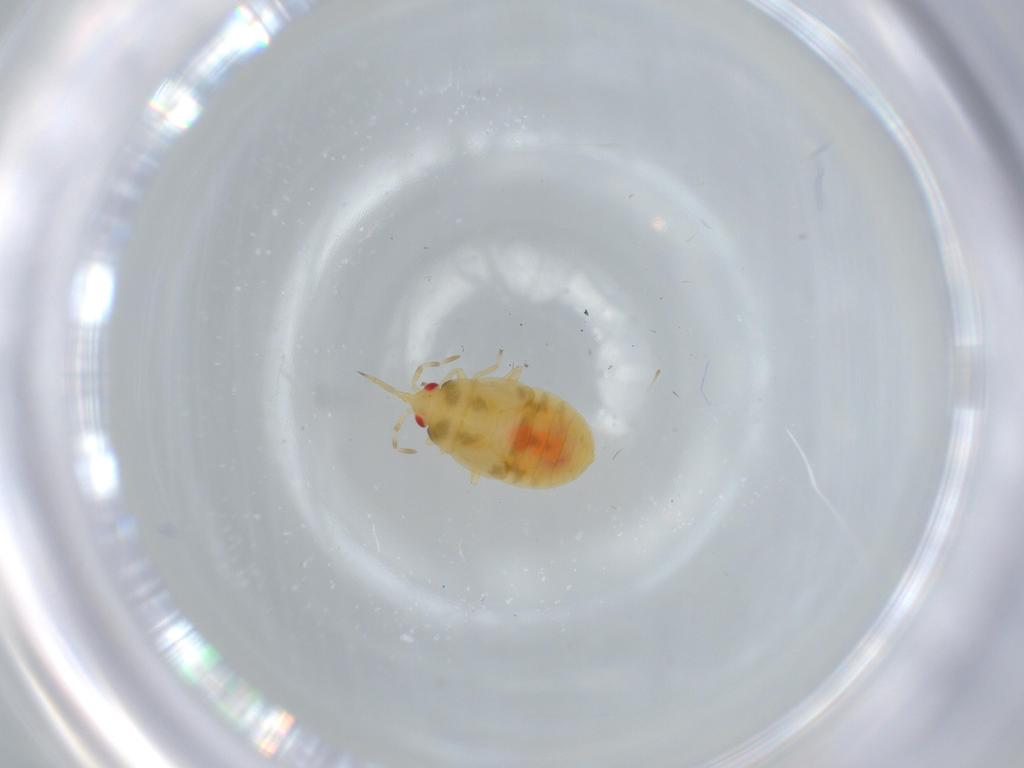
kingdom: Animalia
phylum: Arthropoda
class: Insecta
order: Hemiptera
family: Anthocoridae
